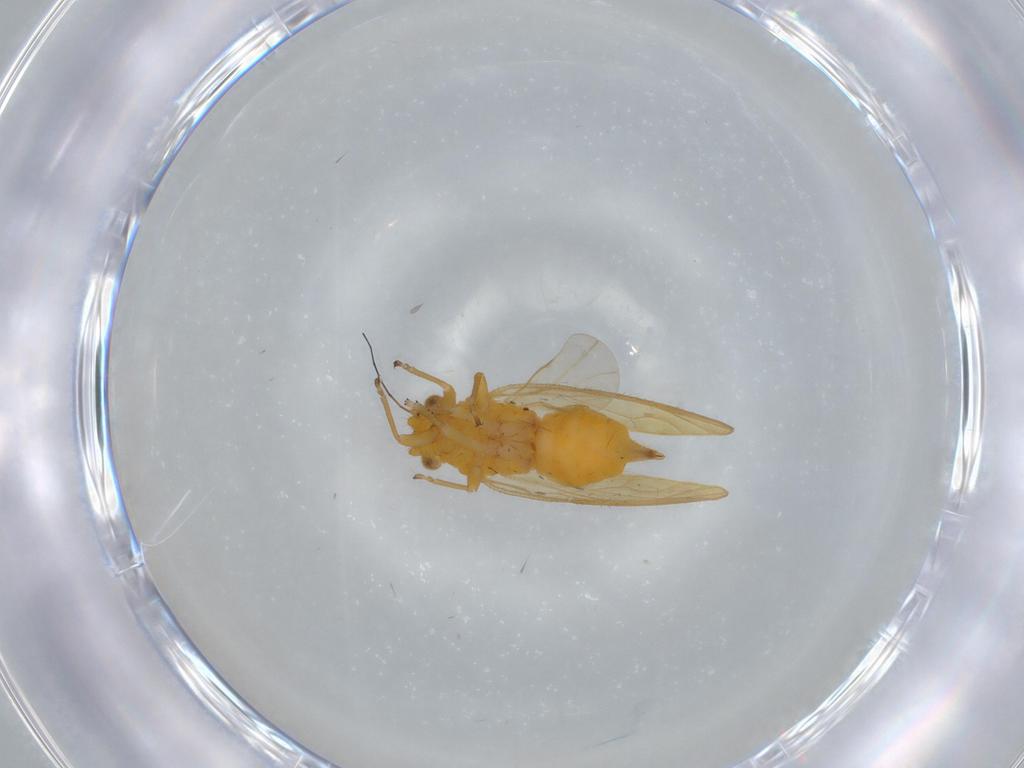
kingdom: Animalia
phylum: Arthropoda
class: Insecta
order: Hemiptera
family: Psyllidae
